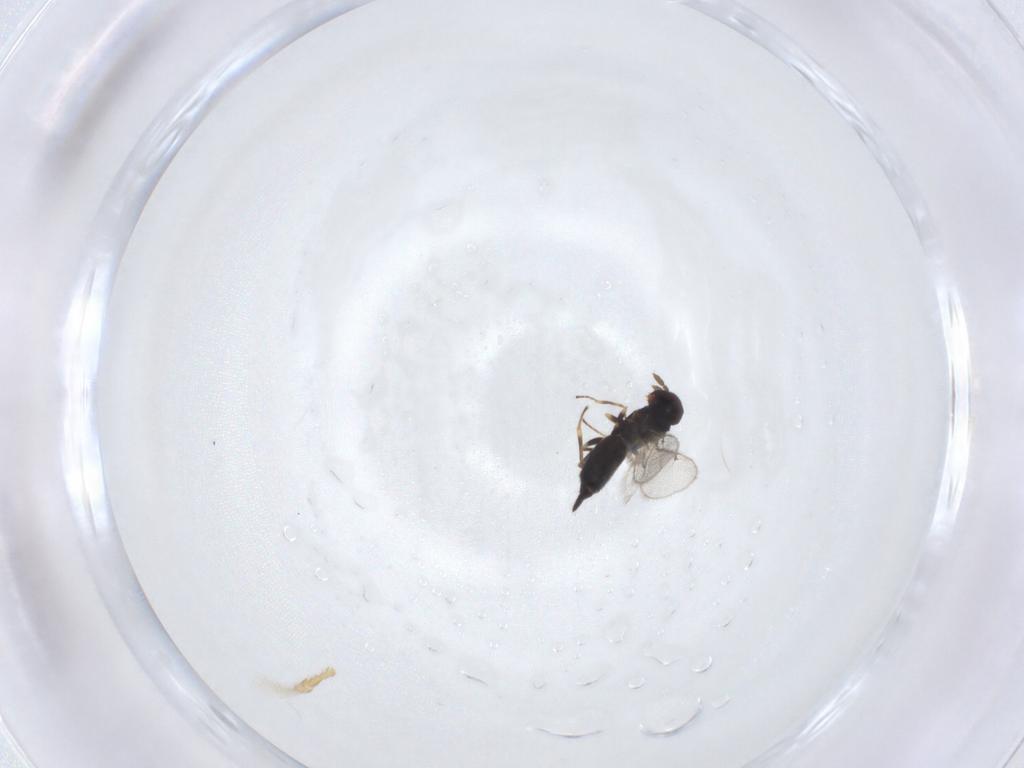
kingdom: Animalia
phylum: Arthropoda
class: Insecta
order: Hymenoptera
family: Eulophidae
